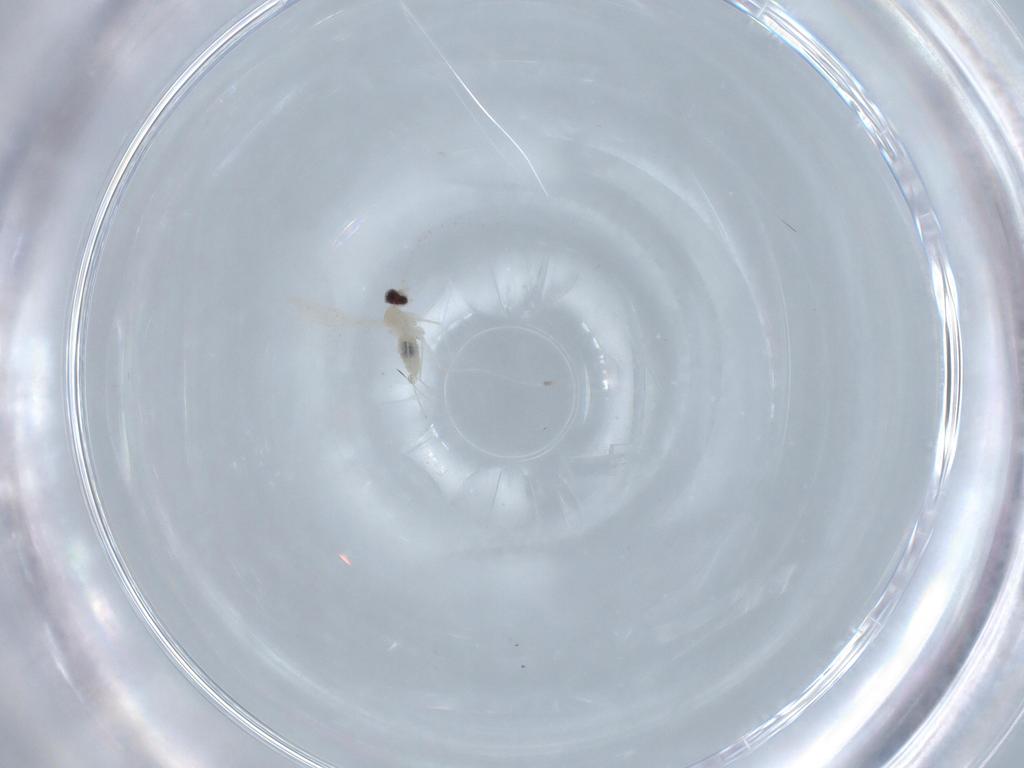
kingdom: Animalia
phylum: Arthropoda
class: Insecta
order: Diptera
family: Cecidomyiidae
